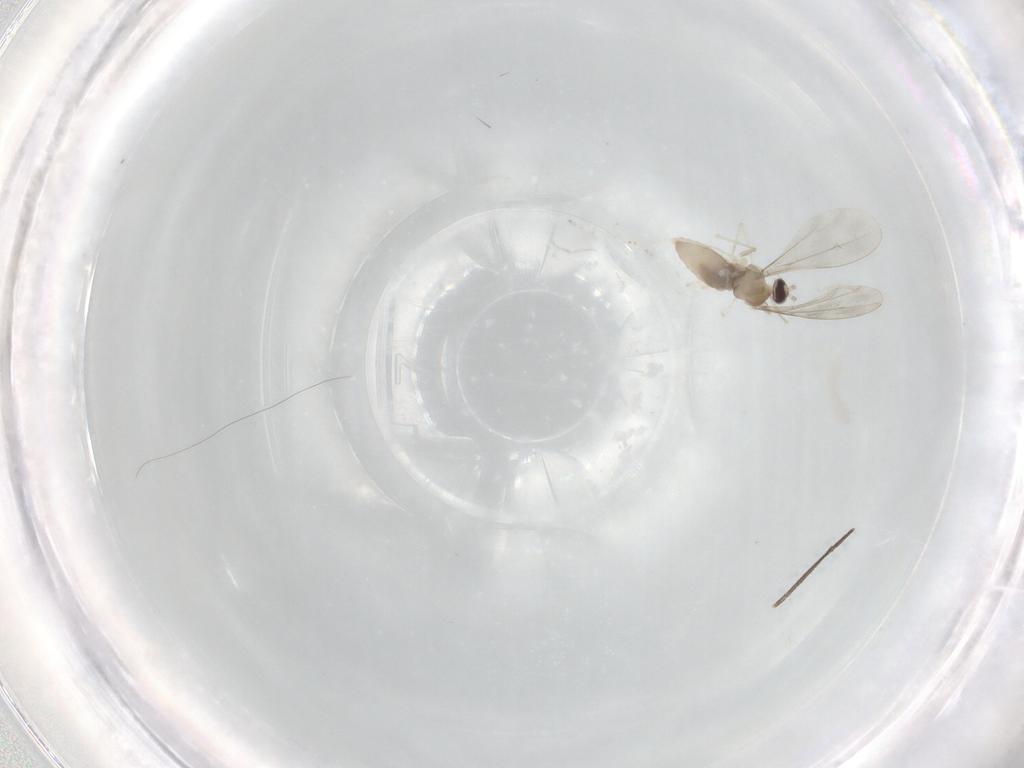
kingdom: Animalia
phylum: Arthropoda
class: Insecta
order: Diptera
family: Cecidomyiidae
